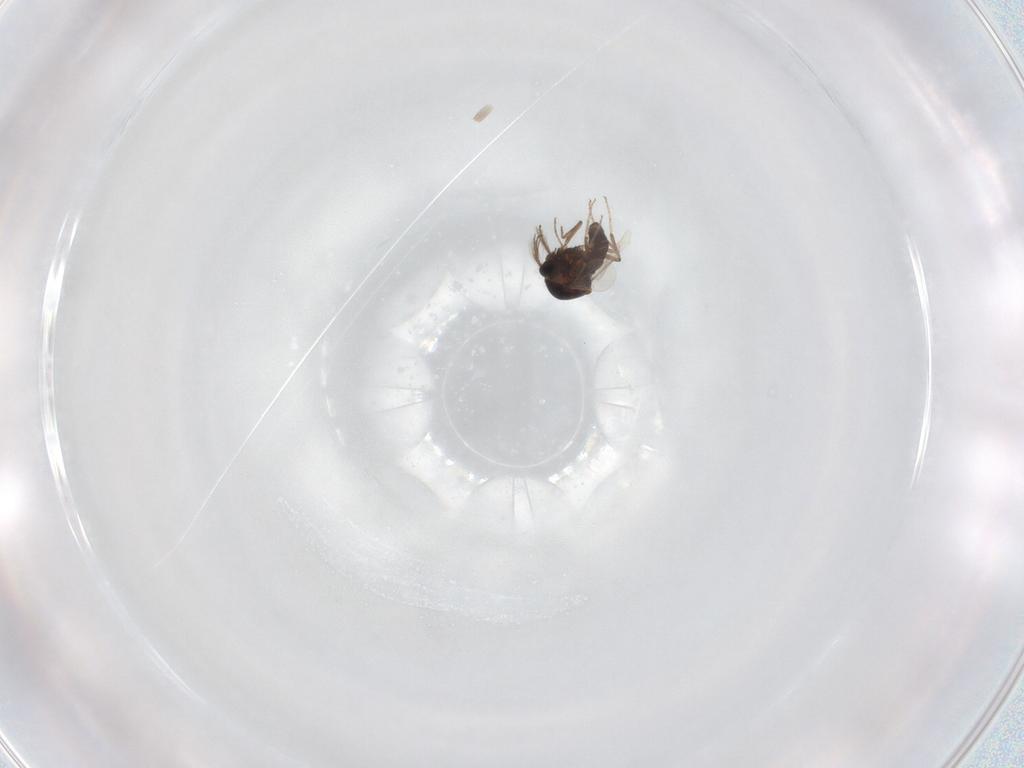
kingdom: Animalia
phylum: Arthropoda
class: Insecta
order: Diptera
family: Ceratopogonidae
